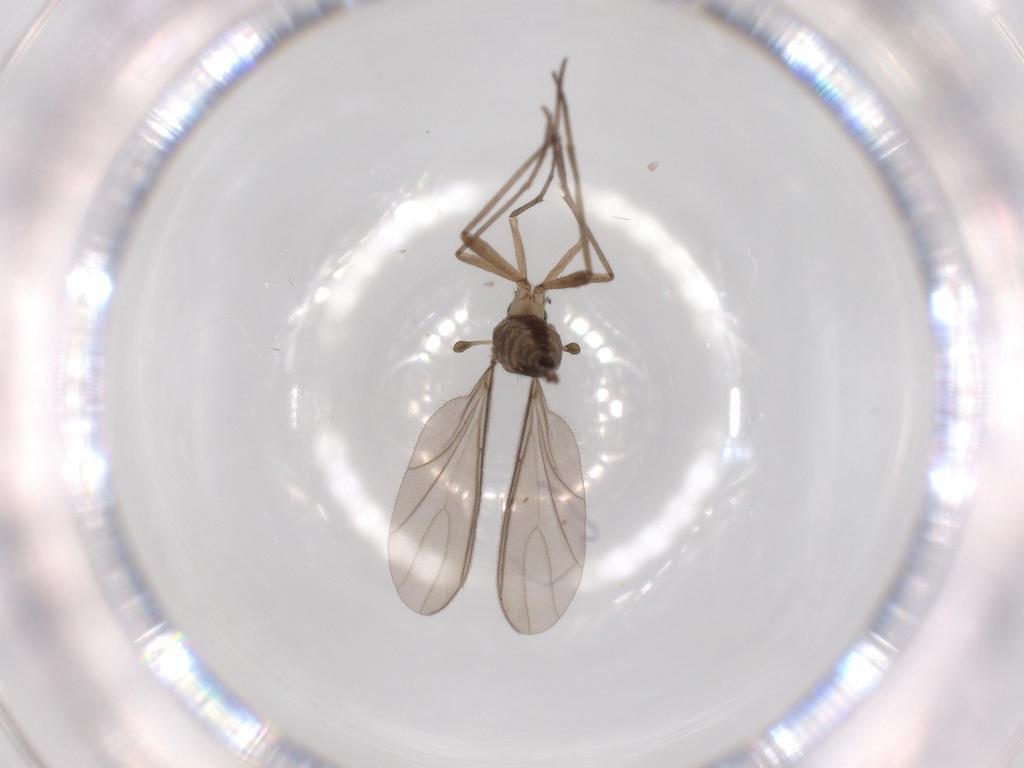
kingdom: Animalia
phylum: Arthropoda
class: Insecta
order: Diptera
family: Sciaridae
